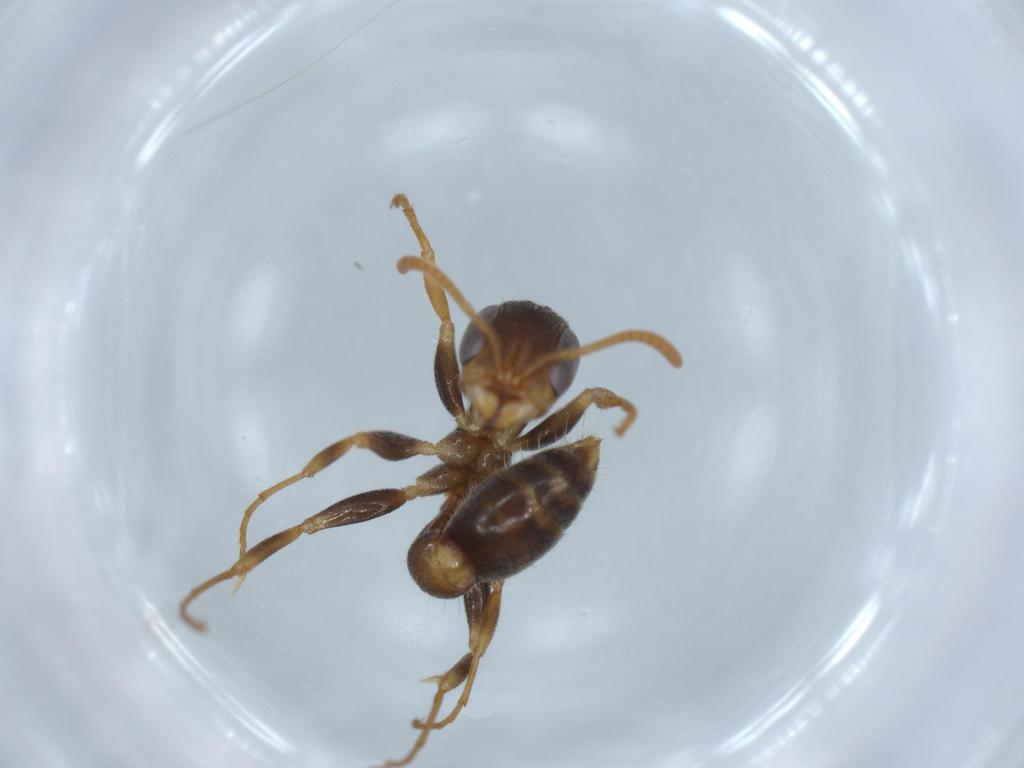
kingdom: Animalia
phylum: Arthropoda
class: Insecta
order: Hymenoptera
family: Formicidae
